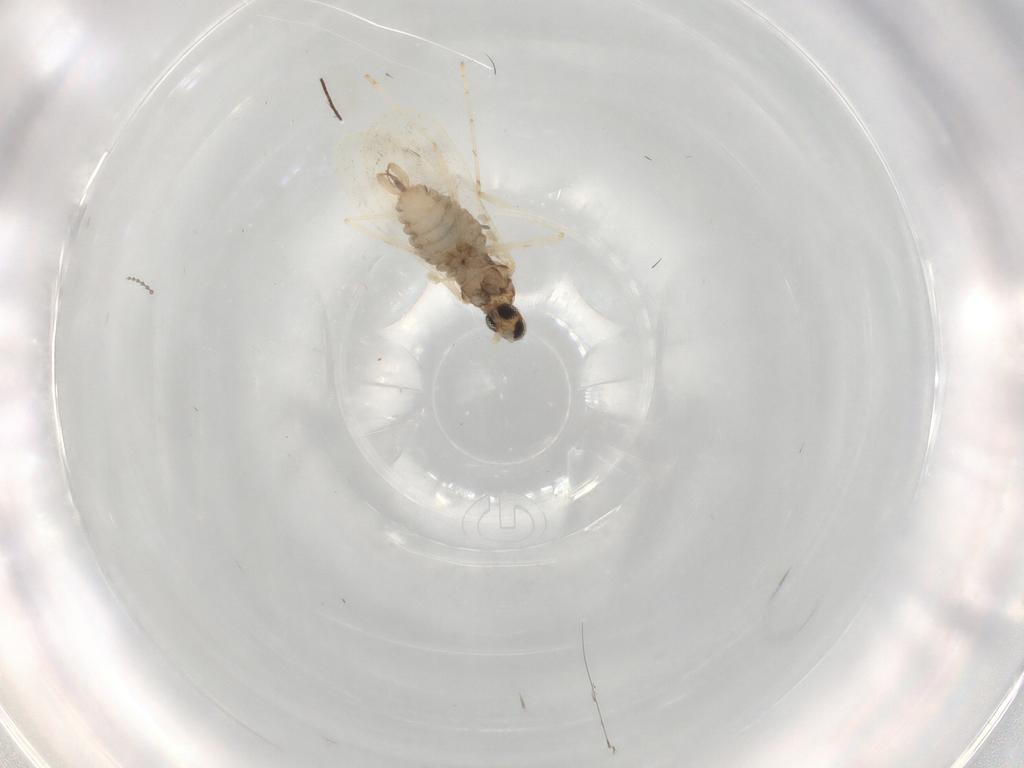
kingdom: Animalia
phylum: Arthropoda
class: Insecta
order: Diptera
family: Cecidomyiidae
